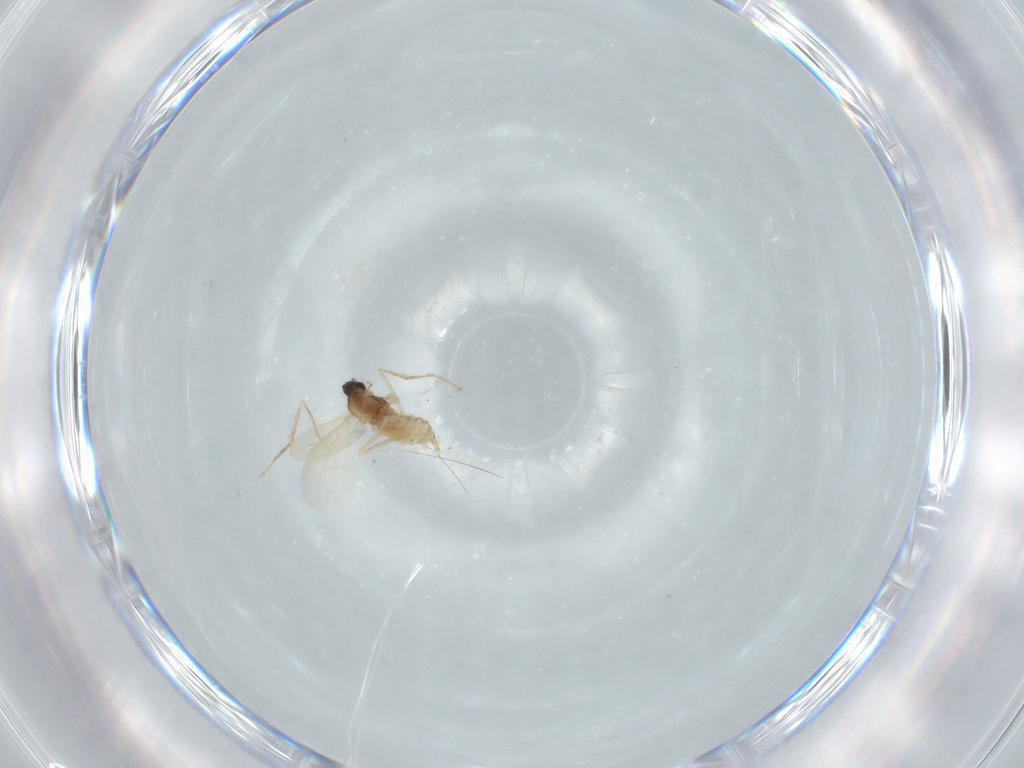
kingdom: Animalia
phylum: Arthropoda
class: Insecta
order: Diptera
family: Cecidomyiidae
